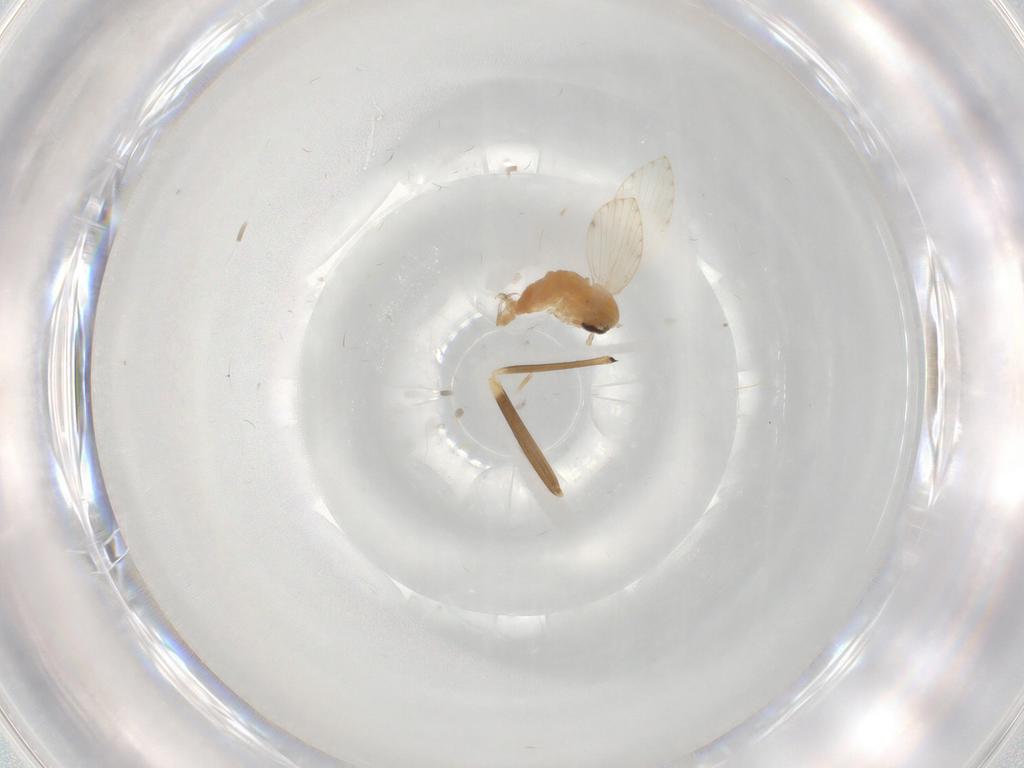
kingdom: Animalia
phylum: Arthropoda
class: Insecta
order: Diptera
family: Psychodidae
